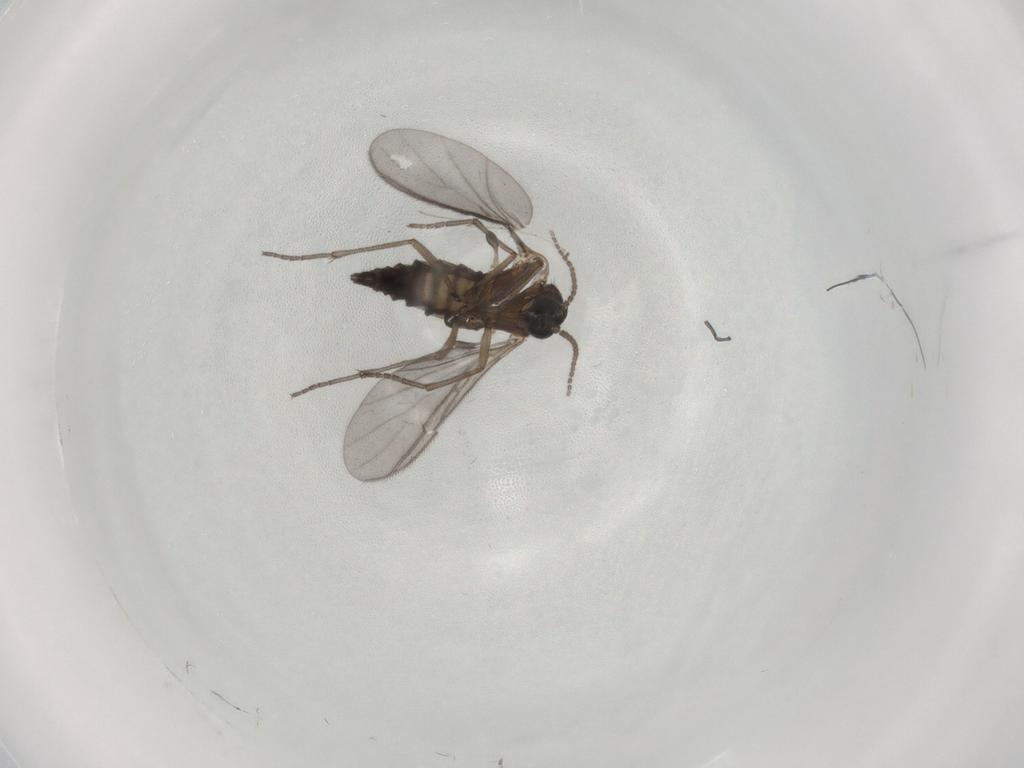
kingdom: Animalia
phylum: Arthropoda
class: Insecta
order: Diptera
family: Sciaridae
